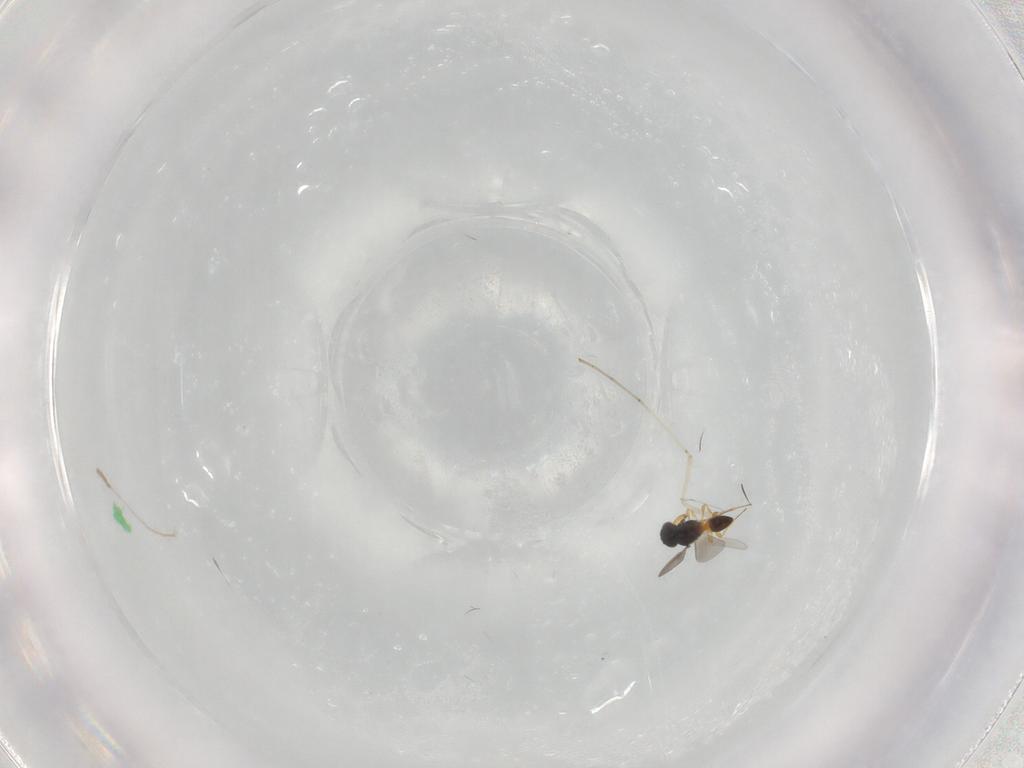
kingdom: Animalia
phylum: Arthropoda
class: Insecta
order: Hymenoptera
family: Platygastridae
